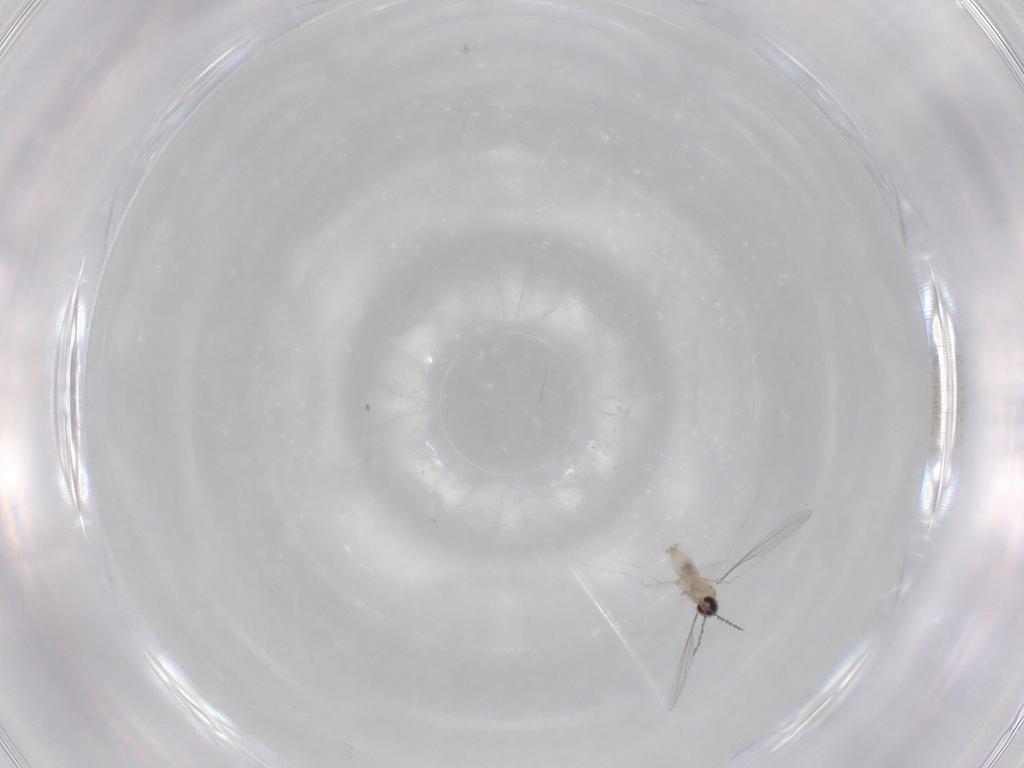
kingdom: Animalia
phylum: Arthropoda
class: Insecta
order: Diptera
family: Cecidomyiidae
